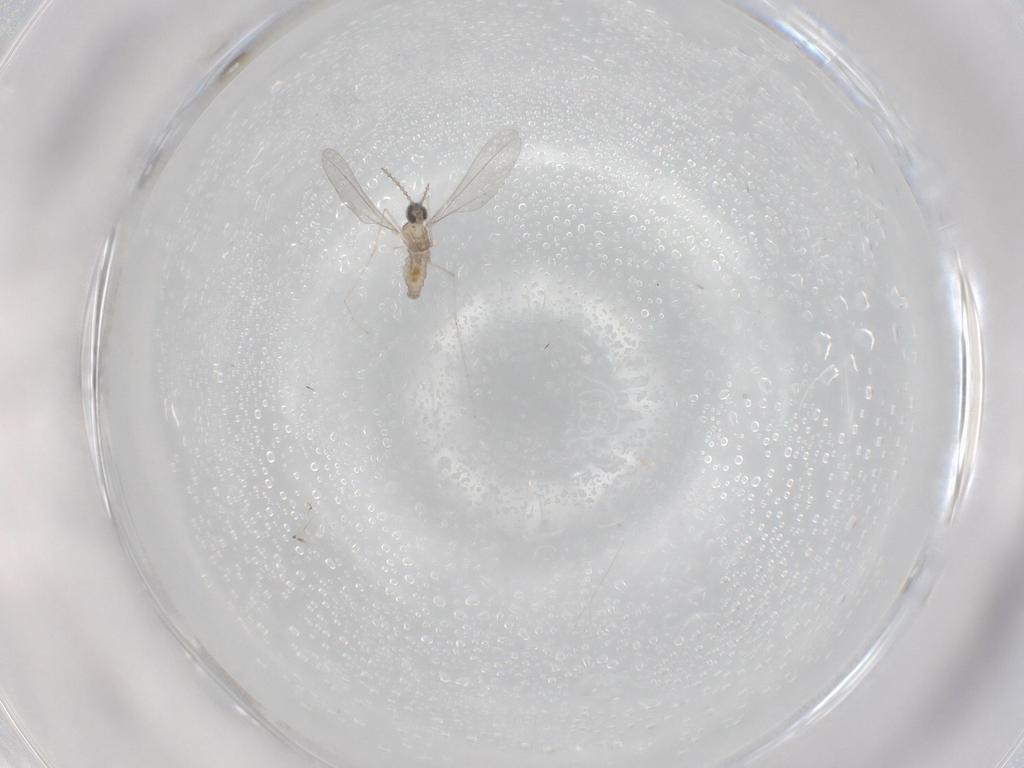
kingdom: Animalia
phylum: Arthropoda
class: Insecta
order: Diptera
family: Cecidomyiidae
